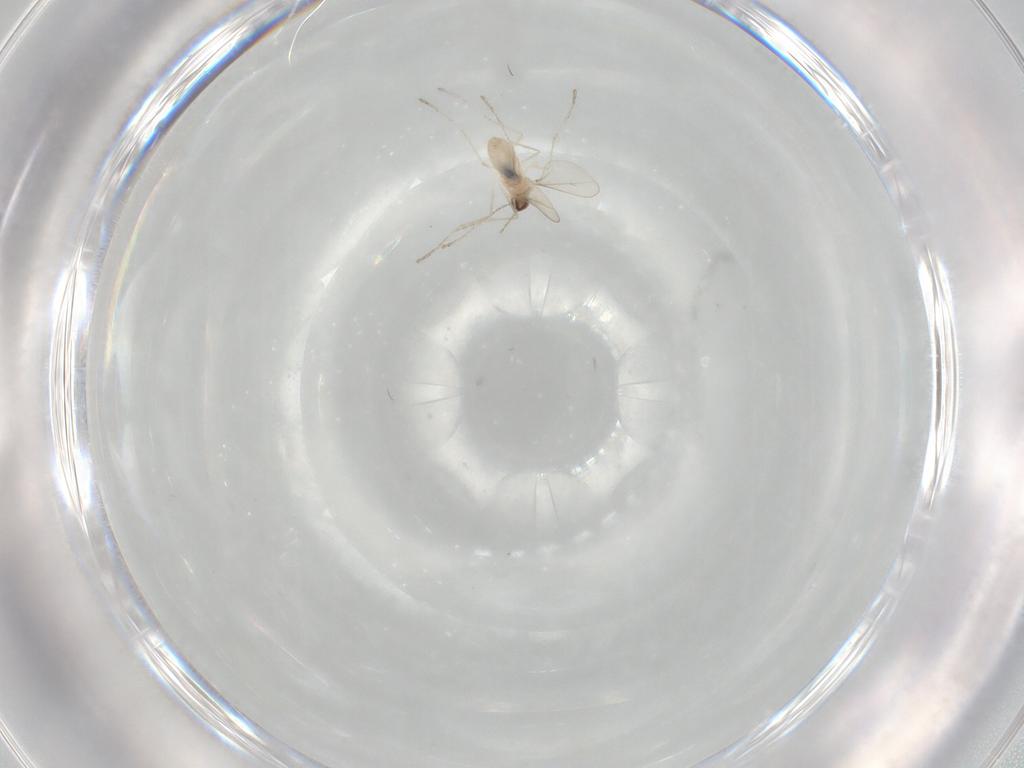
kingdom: Animalia
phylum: Arthropoda
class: Insecta
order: Diptera
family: Cecidomyiidae
